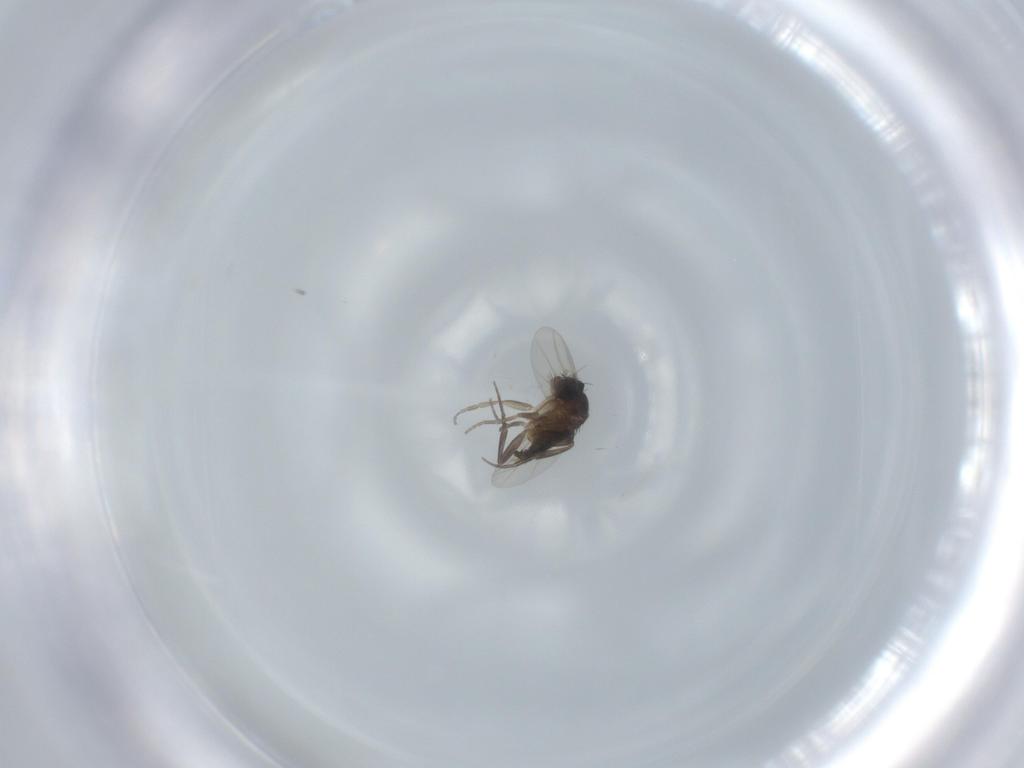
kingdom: Animalia
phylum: Arthropoda
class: Insecta
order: Diptera
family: Phoridae
